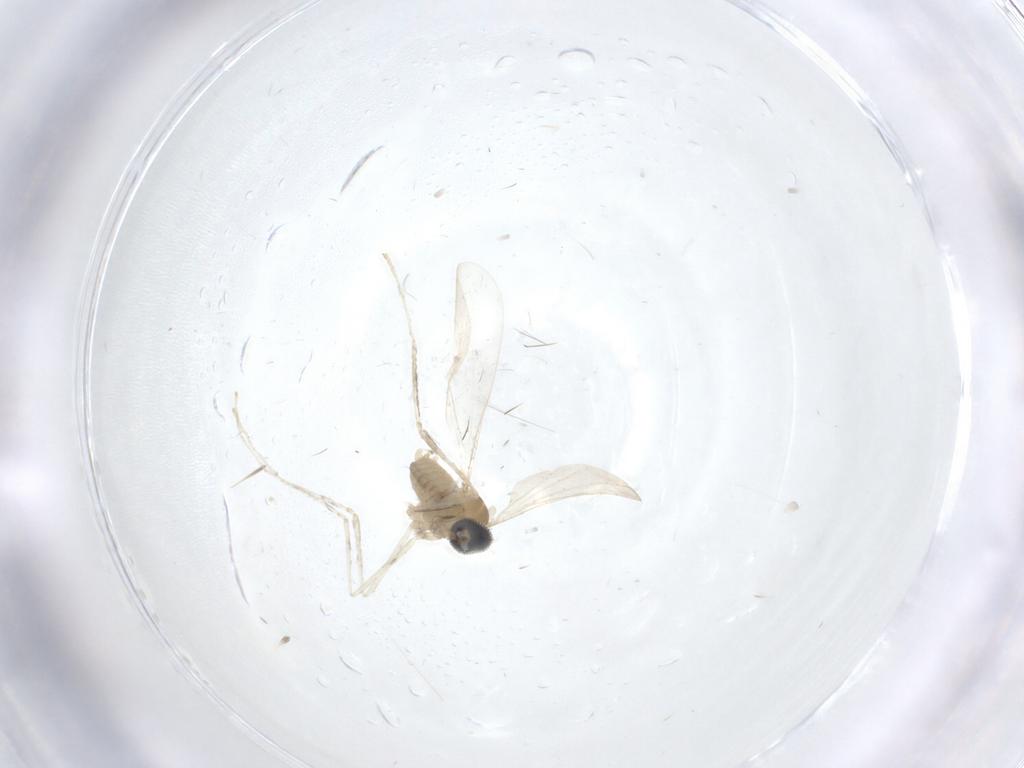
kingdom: Animalia
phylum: Arthropoda
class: Insecta
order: Diptera
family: Cecidomyiidae
